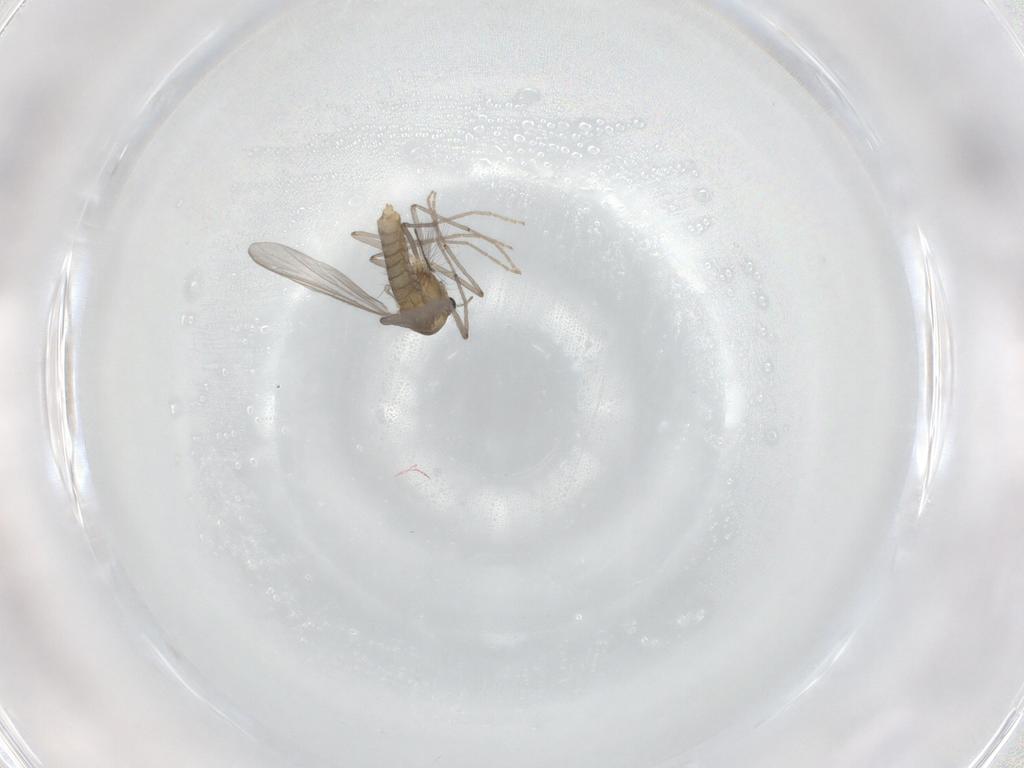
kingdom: Animalia
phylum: Arthropoda
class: Insecta
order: Diptera
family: Chironomidae
